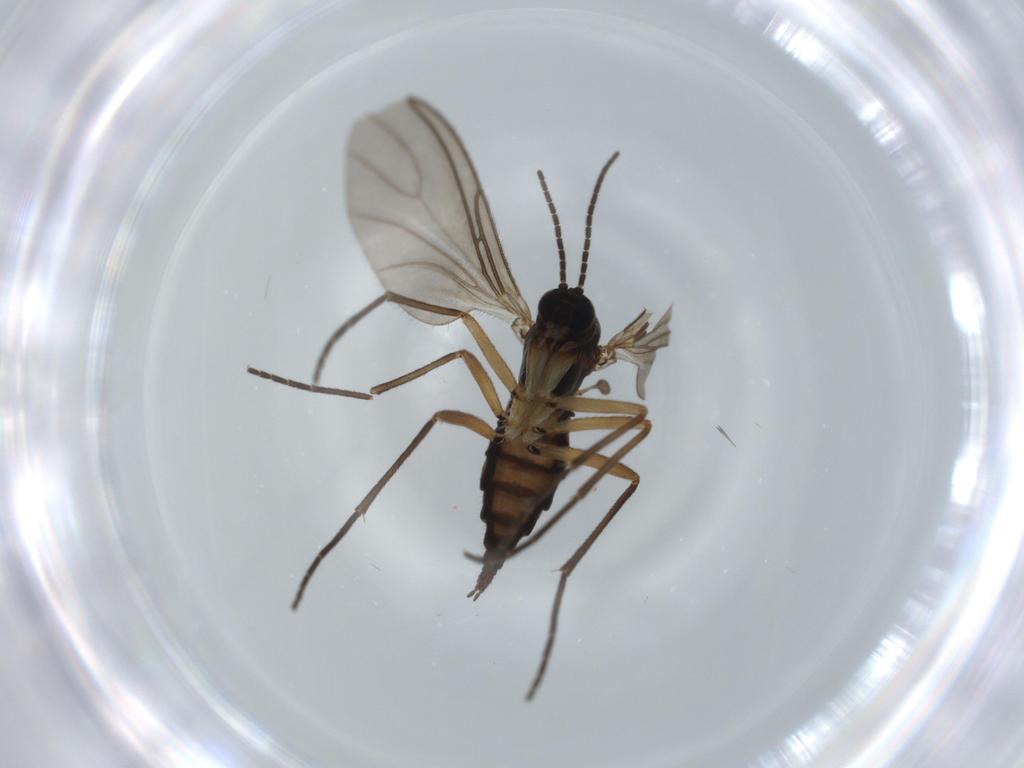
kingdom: Animalia
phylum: Arthropoda
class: Insecta
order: Diptera
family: Sciaridae
